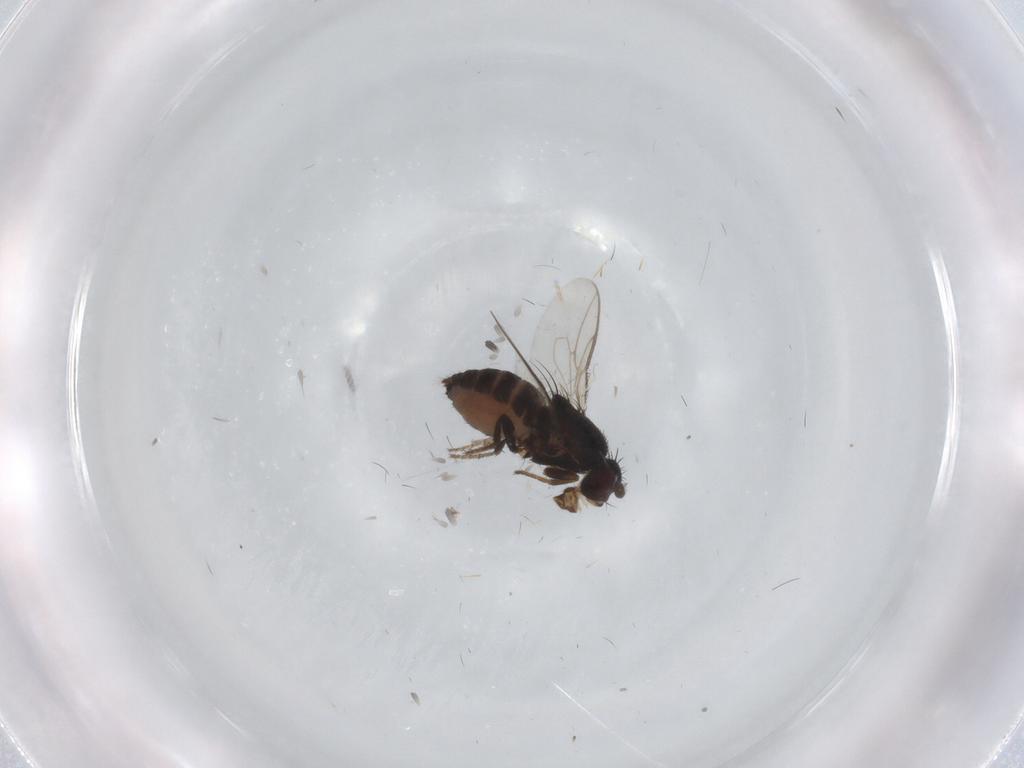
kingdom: Animalia
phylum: Arthropoda
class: Insecta
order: Diptera
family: Sphaeroceridae
